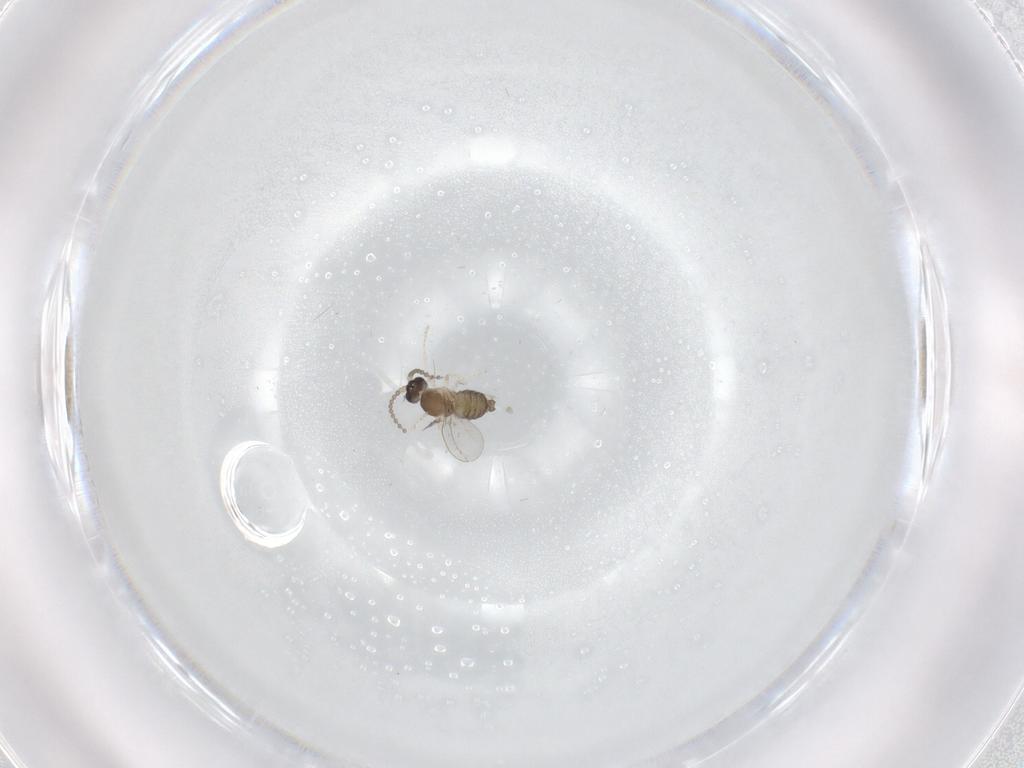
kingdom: Animalia
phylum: Arthropoda
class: Insecta
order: Diptera
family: Cecidomyiidae
